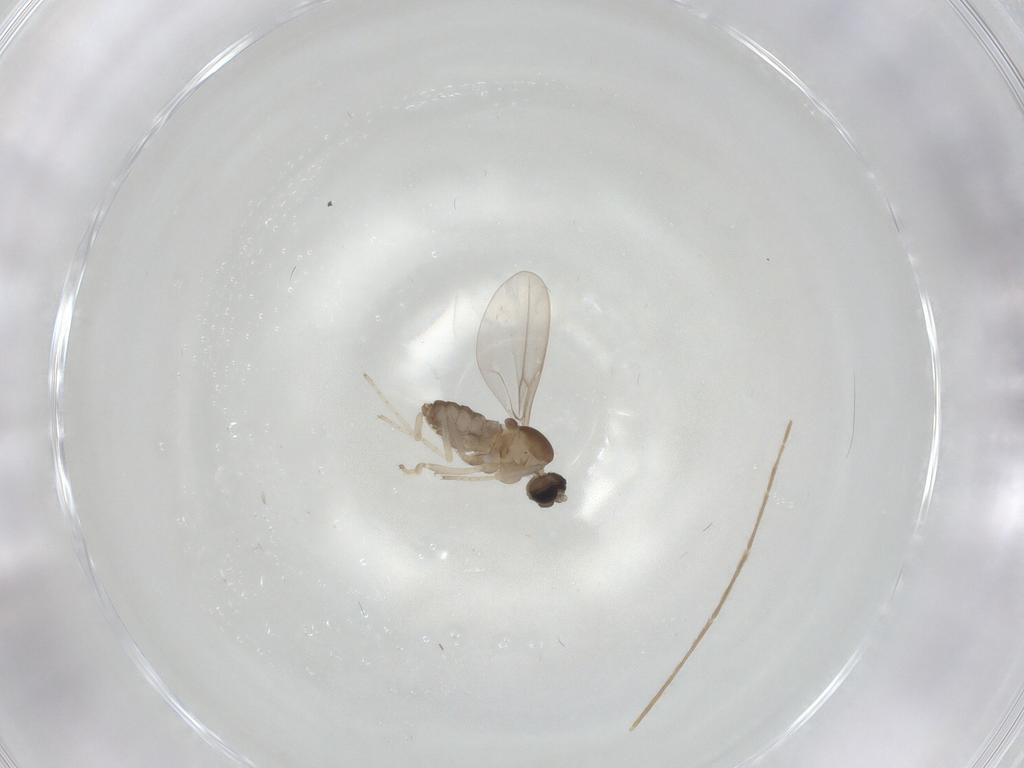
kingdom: Animalia
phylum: Arthropoda
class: Insecta
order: Diptera
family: Cecidomyiidae
